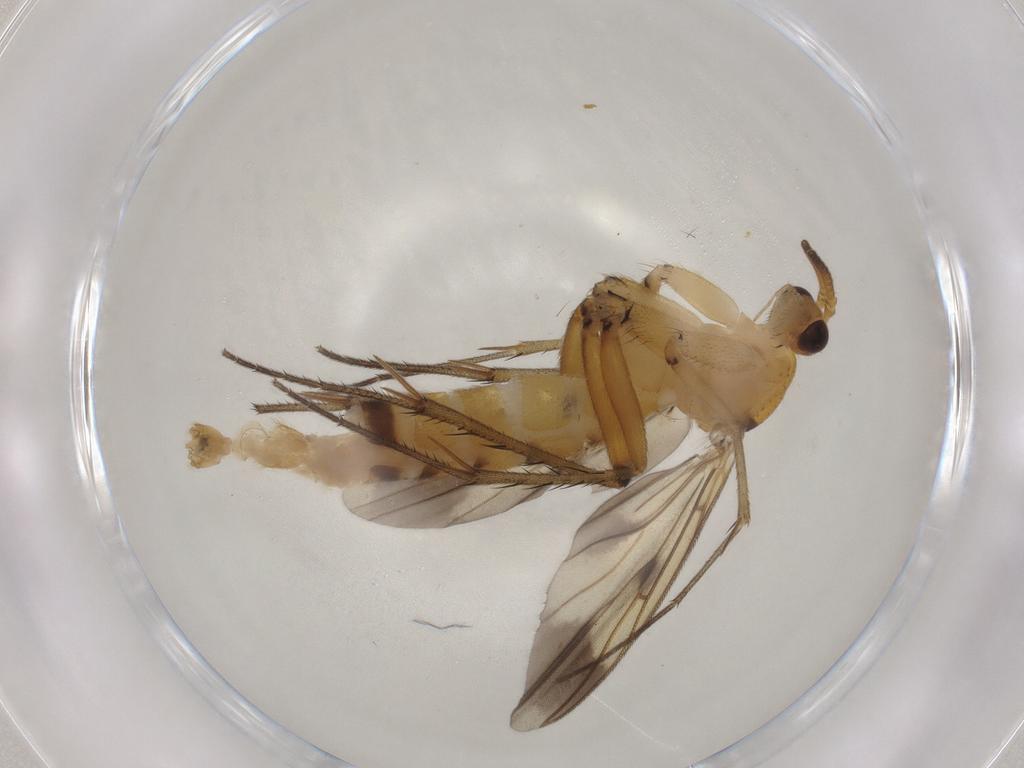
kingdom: Animalia
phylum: Arthropoda
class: Insecta
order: Diptera
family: Mycetophilidae
